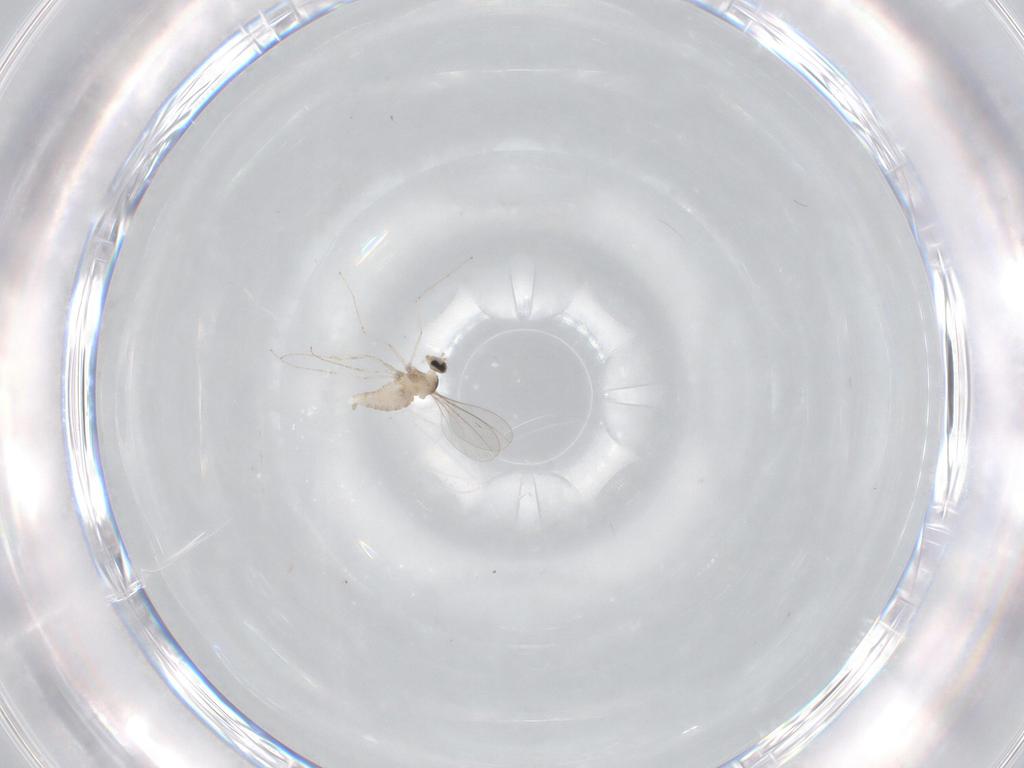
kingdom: Animalia
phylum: Arthropoda
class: Insecta
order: Diptera
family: Cecidomyiidae
